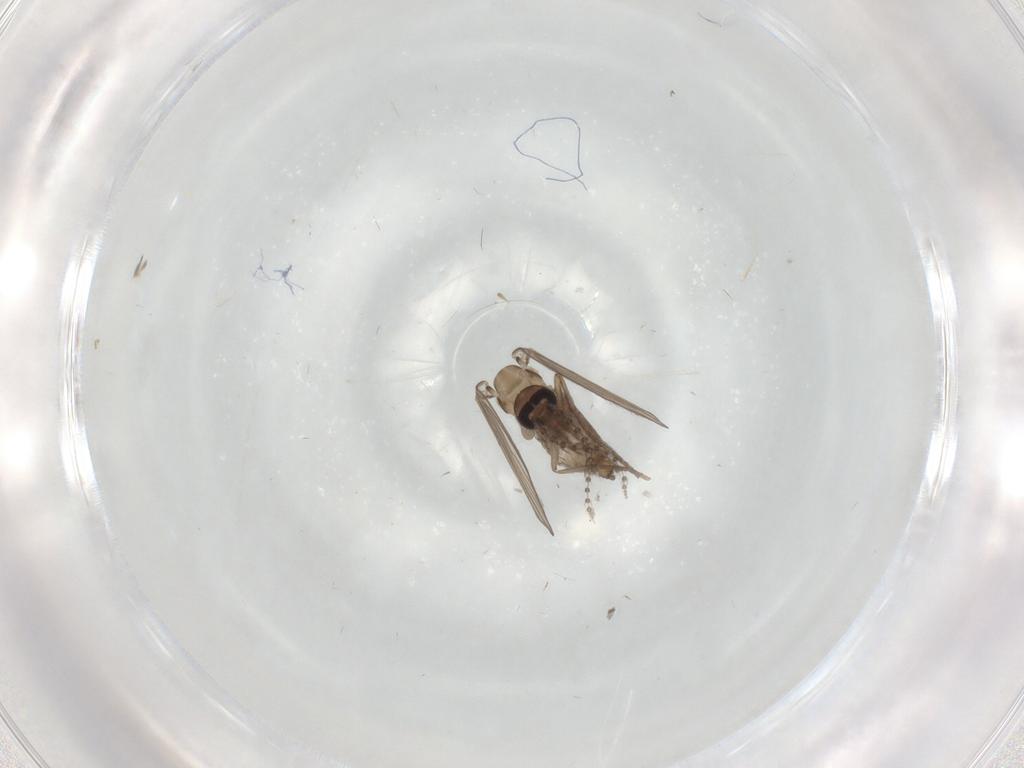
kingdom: Animalia
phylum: Arthropoda
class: Insecta
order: Diptera
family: Psychodidae
